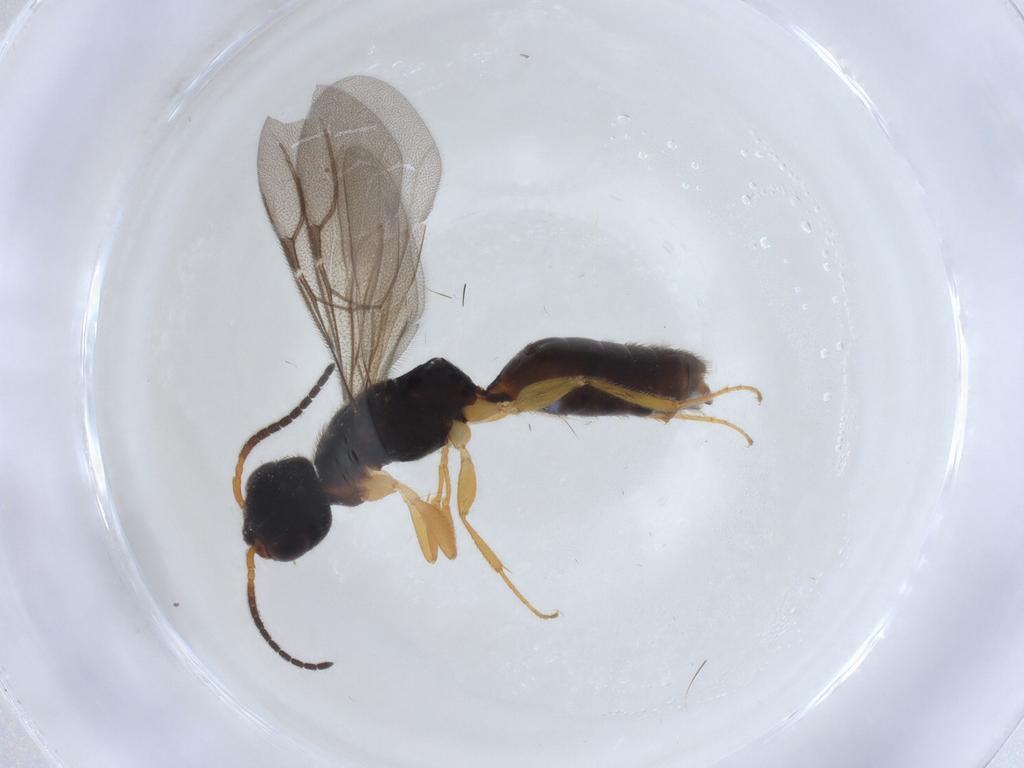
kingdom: Animalia
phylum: Arthropoda
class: Insecta
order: Hymenoptera
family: Bethylidae
